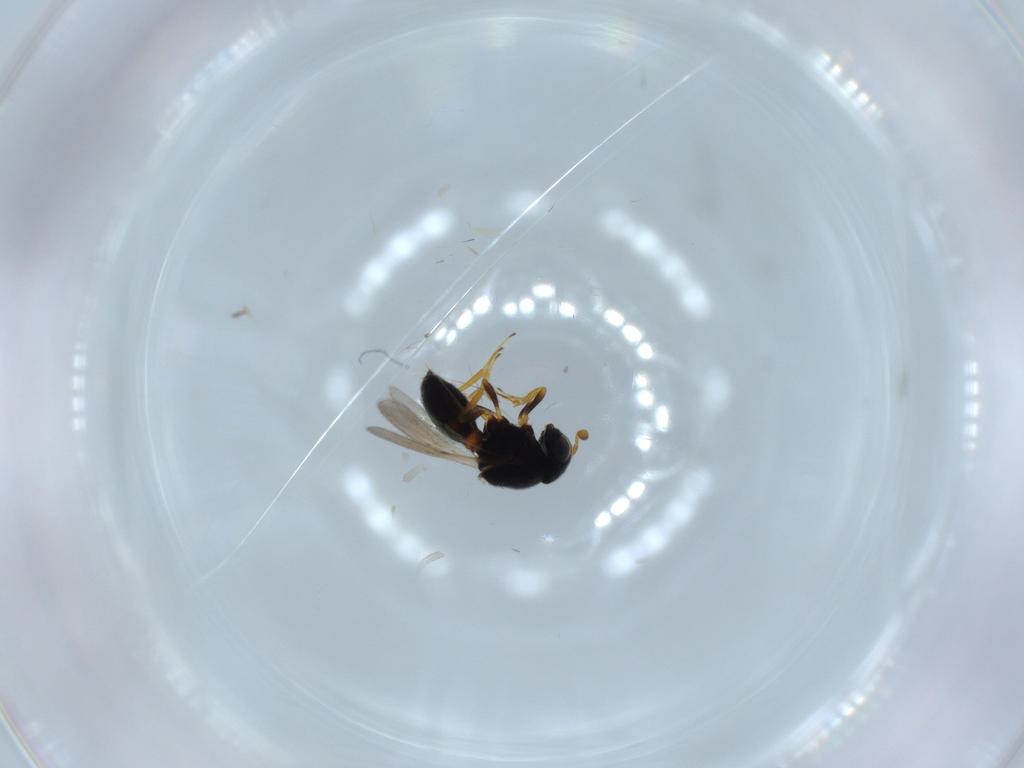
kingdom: Animalia
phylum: Arthropoda
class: Insecta
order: Hymenoptera
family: Scelionidae
